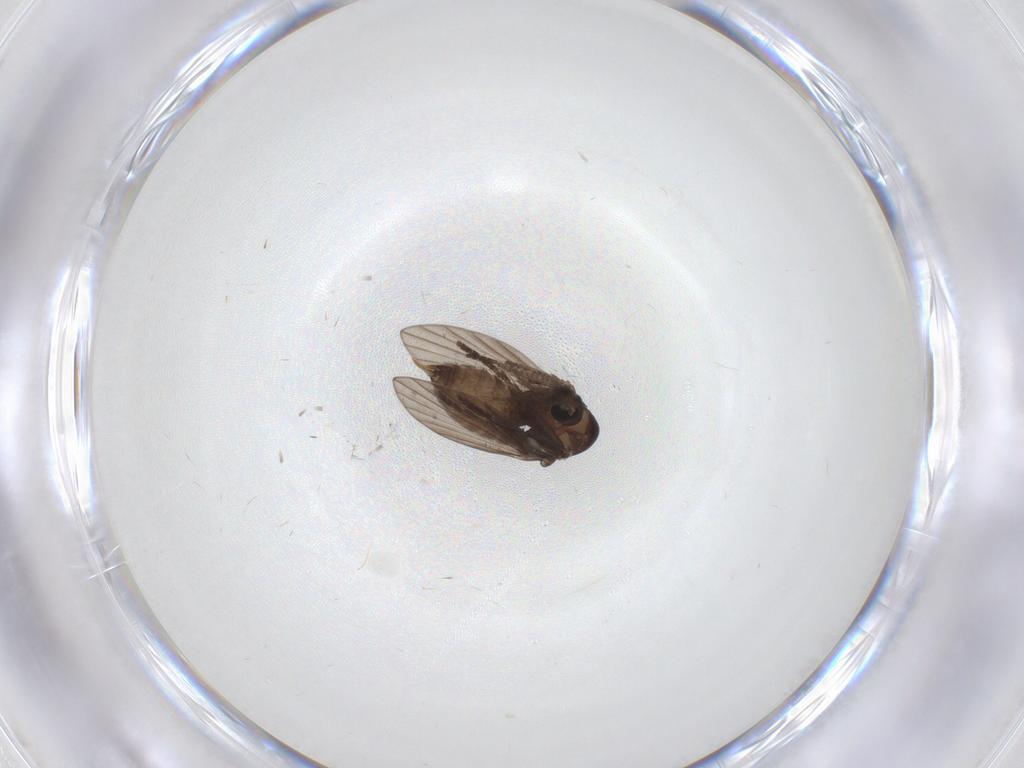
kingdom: Animalia
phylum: Arthropoda
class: Insecta
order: Diptera
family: Psychodidae
